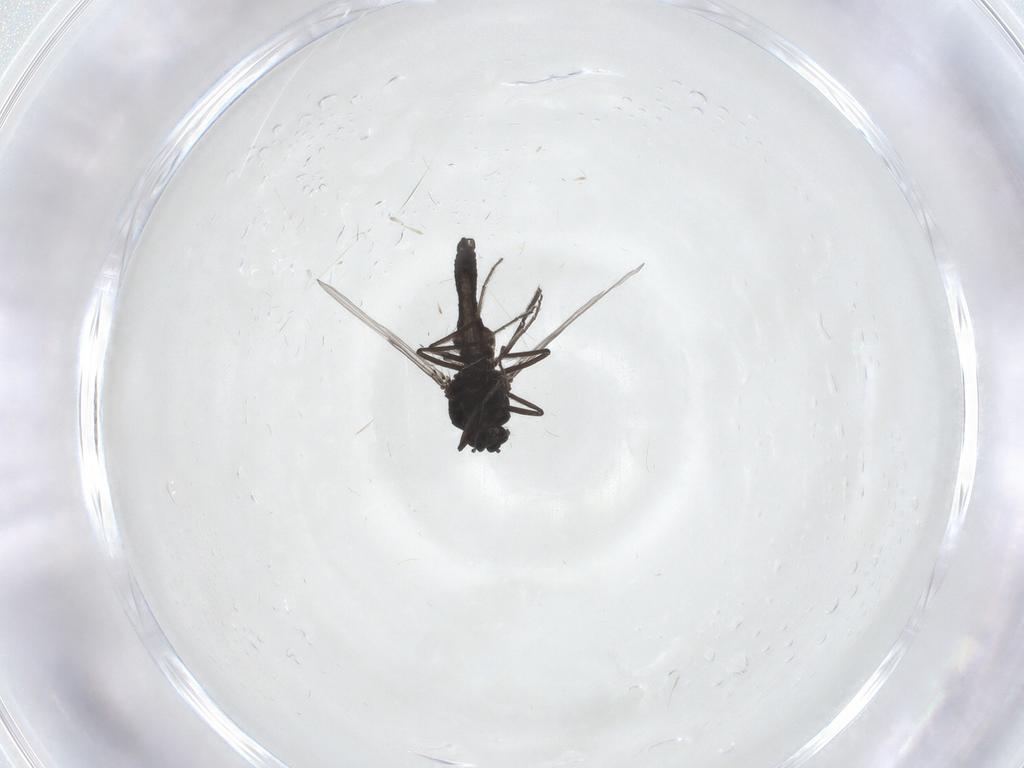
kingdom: Animalia
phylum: Arthropoda
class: Insecta
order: Diptera
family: Ceratopogonidae
